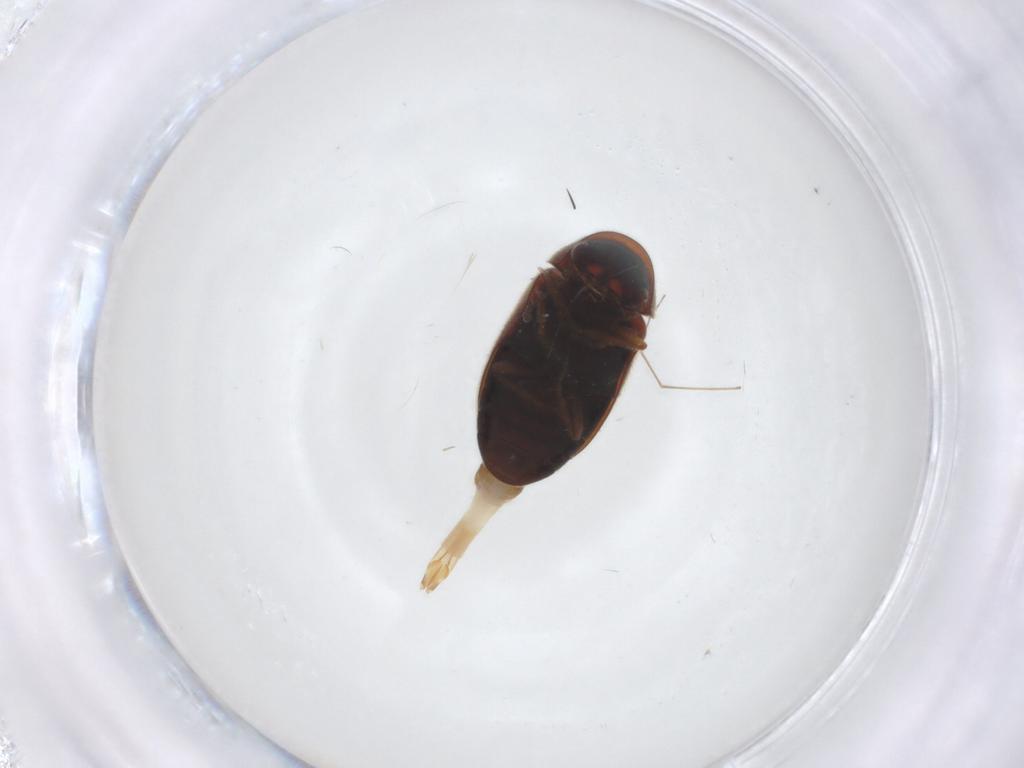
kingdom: Animalia
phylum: Arthropoda
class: Insecta
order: Coleoptera
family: Ptinidae
